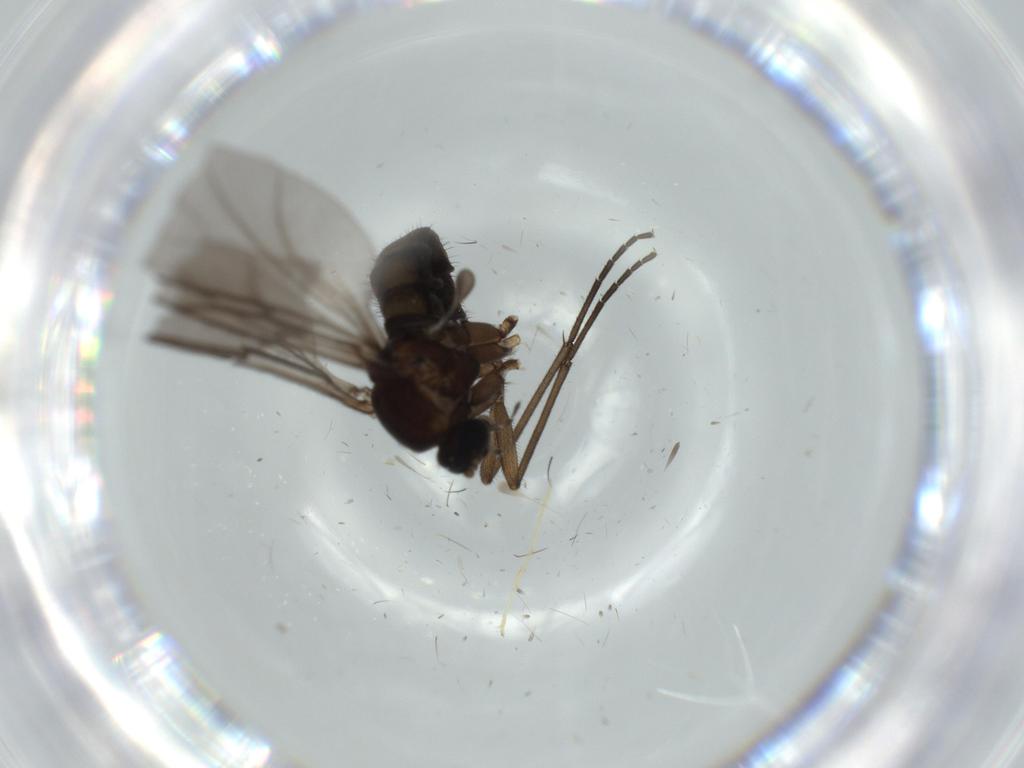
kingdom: Animalia
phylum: Arthropoda
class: Insecta
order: Diptera
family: Sciaridae
